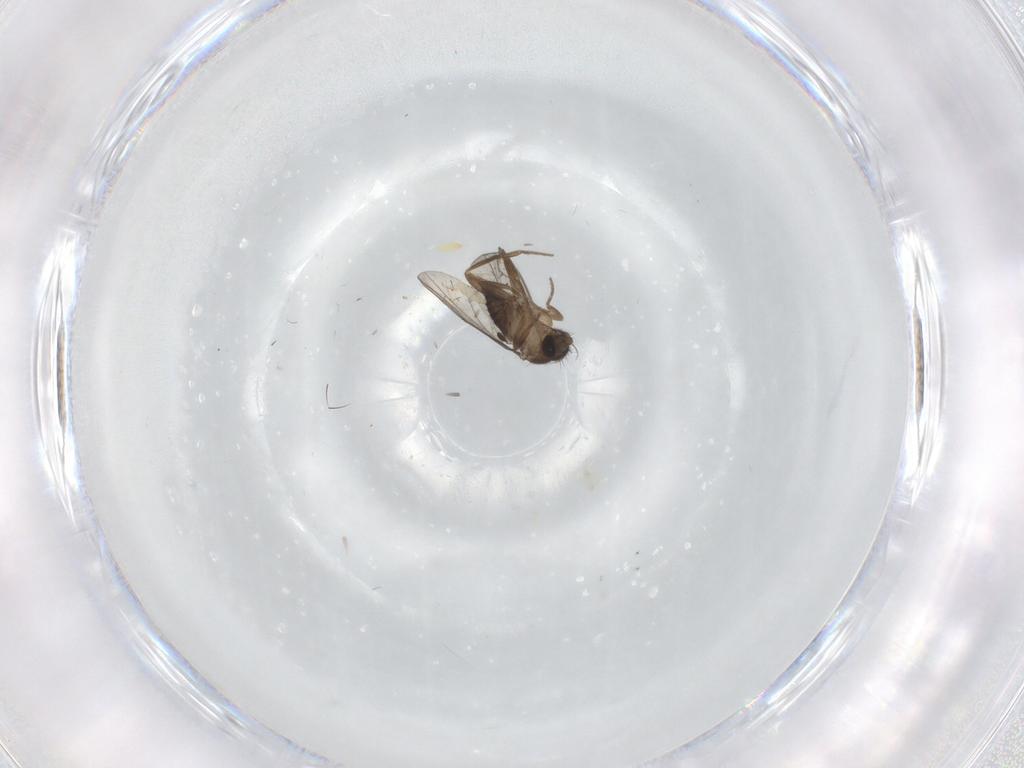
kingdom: Animalia
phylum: Arthropoda
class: Insecta
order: Diptera
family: Phoridae
